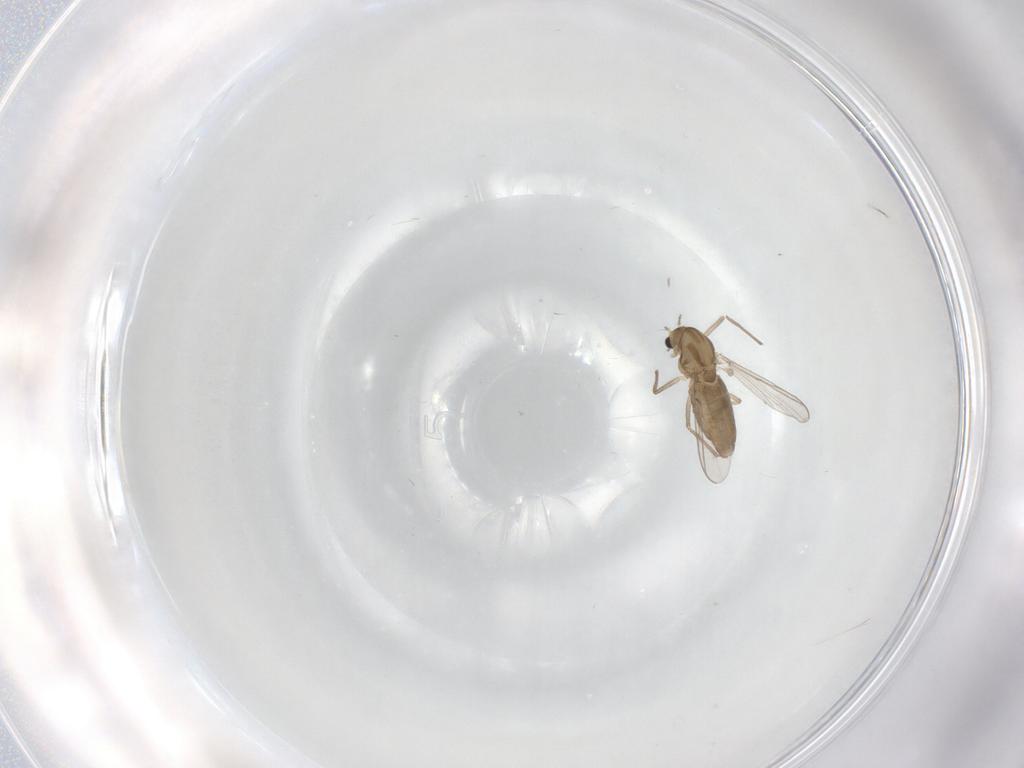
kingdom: Animalia
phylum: Arthropoda
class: Insecta
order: Diptera
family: Chironomidae
